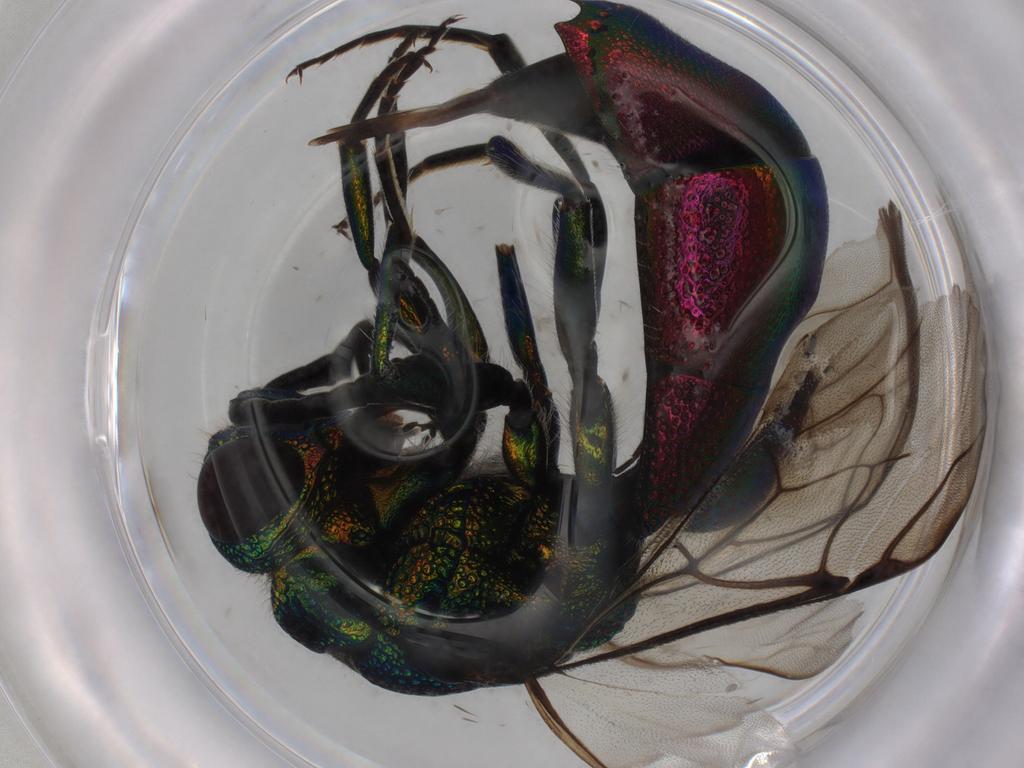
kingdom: Animalia
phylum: Arthropoda
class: Insecta
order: Hymenoptera
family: Chrysididae
